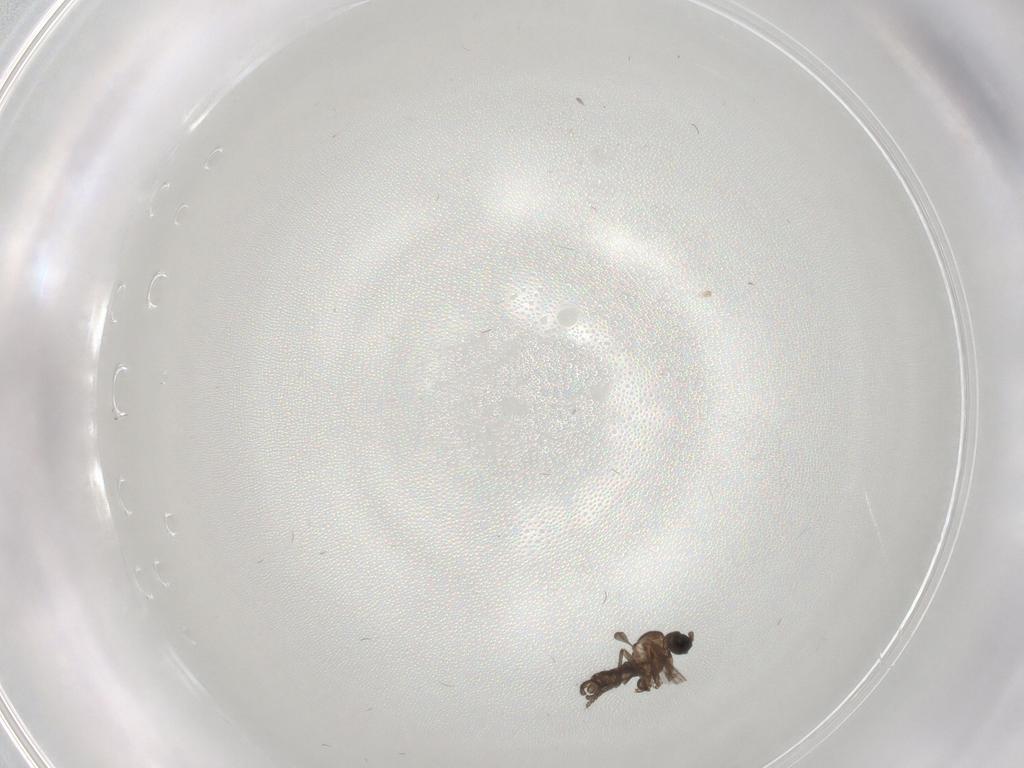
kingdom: Animalia
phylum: Arthropoda
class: Insecta
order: Diptera
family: Sciaridae
